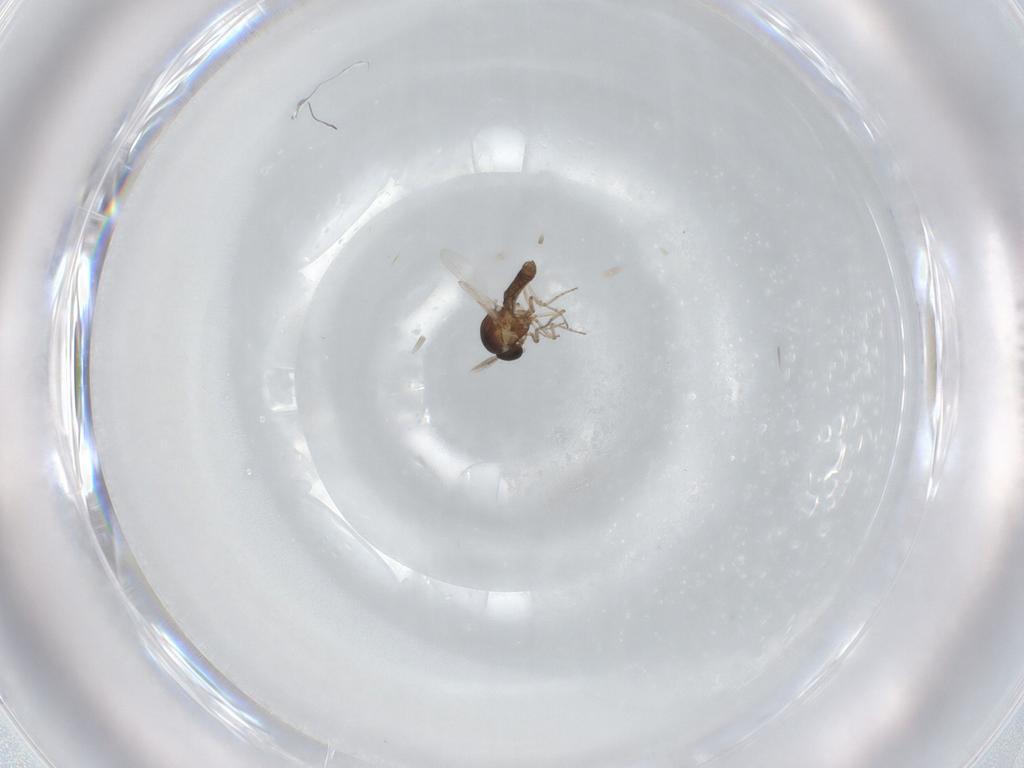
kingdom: Animalia
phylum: Arthropoda
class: Insecta
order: Diptera
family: Ceratopogonidae
